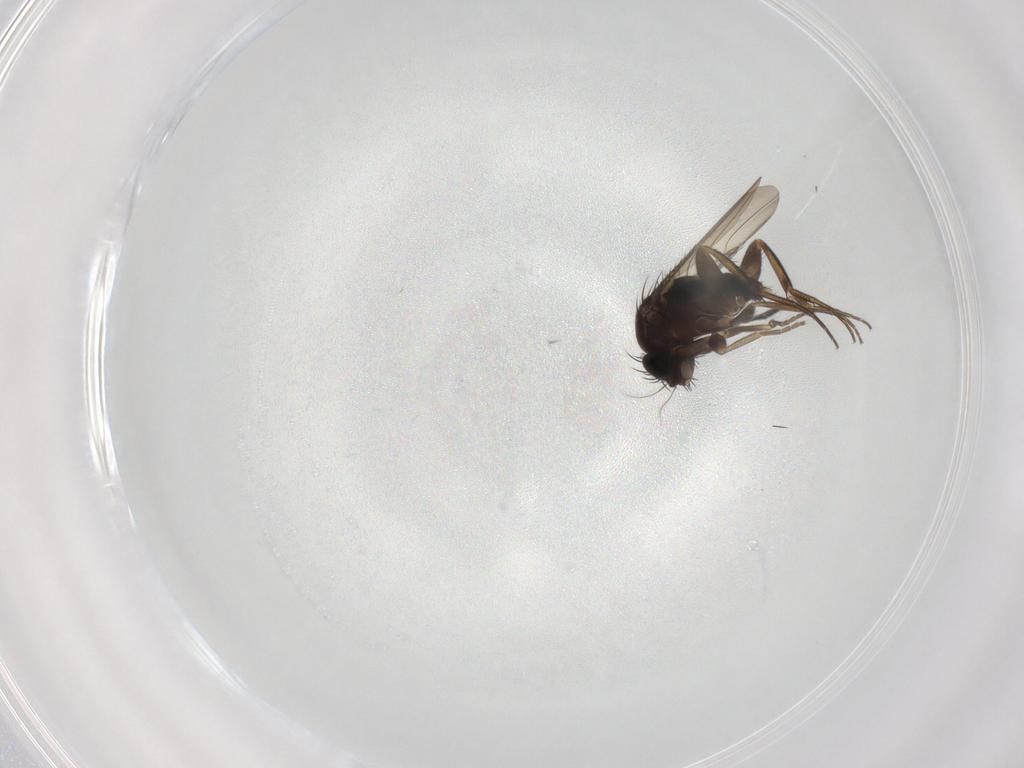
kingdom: Animalia
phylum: Arthropoda
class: Insecta
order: Diptera
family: Phoridae
